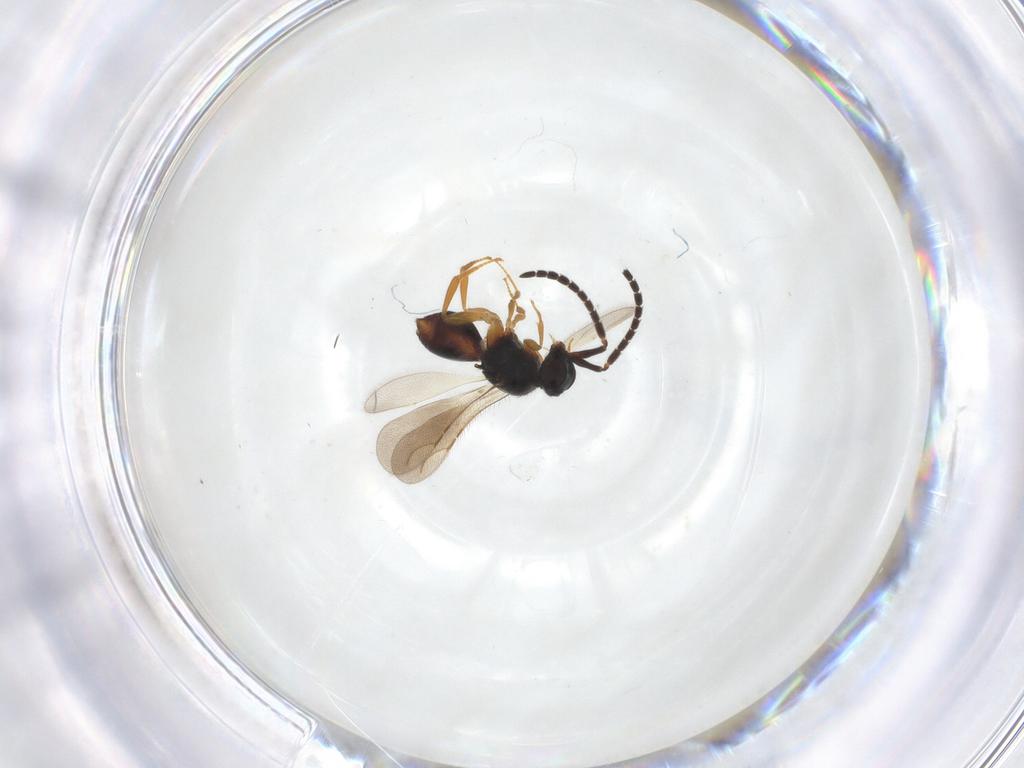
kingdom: Animalia
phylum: Arthropoda
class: Insecta
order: Hymenoptera
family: Ceraphronidae
